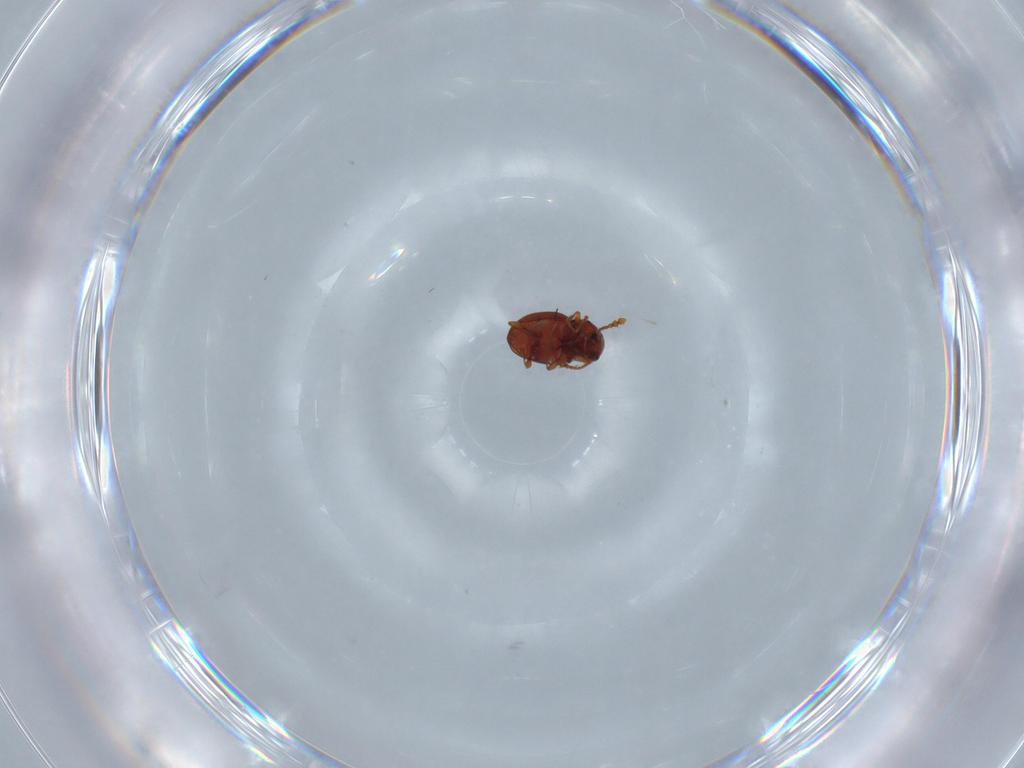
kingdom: Animalia
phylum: Arthropoda
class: Insecta
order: Coleoptera
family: Staphylinidae
